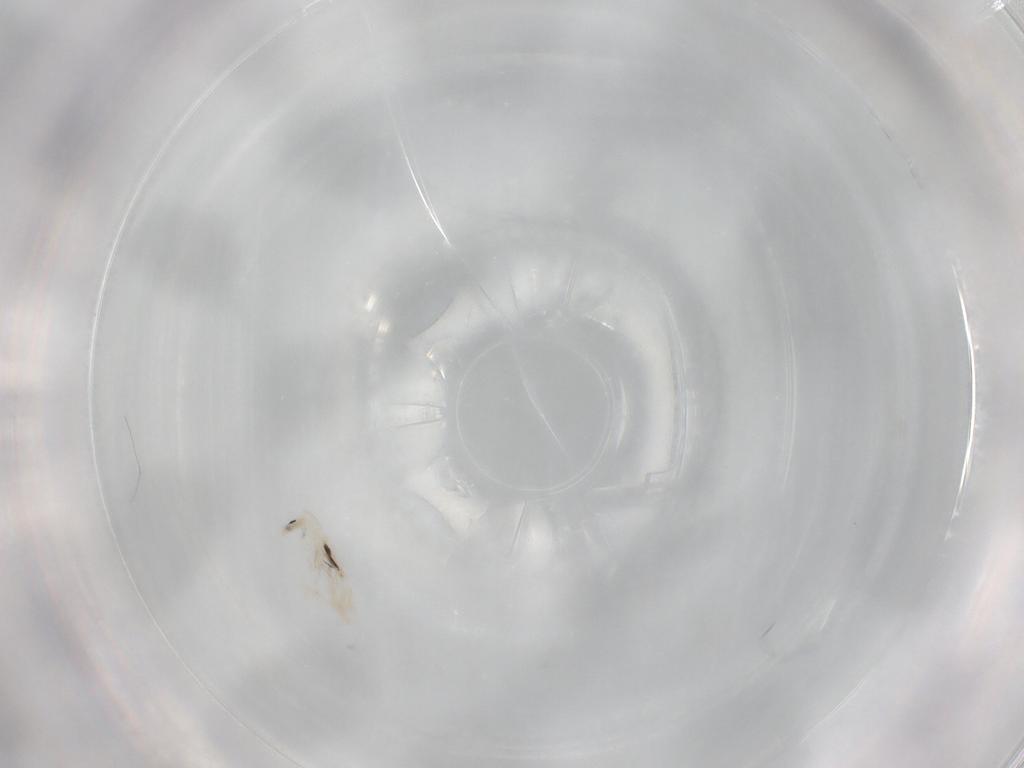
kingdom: Animalia
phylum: Arthropoda
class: Collembola
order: Entomobryomorpha
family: Entomobryidae
